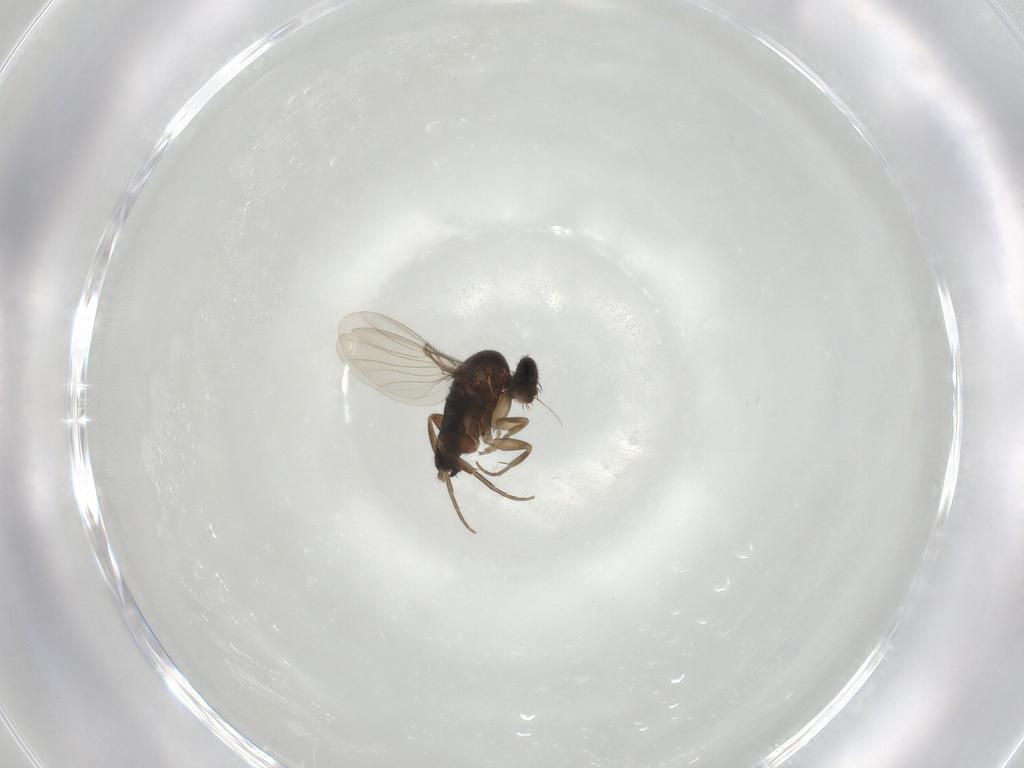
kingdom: Animalia
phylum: Arthropoda
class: Insecta
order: Diptera
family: Phoridae
